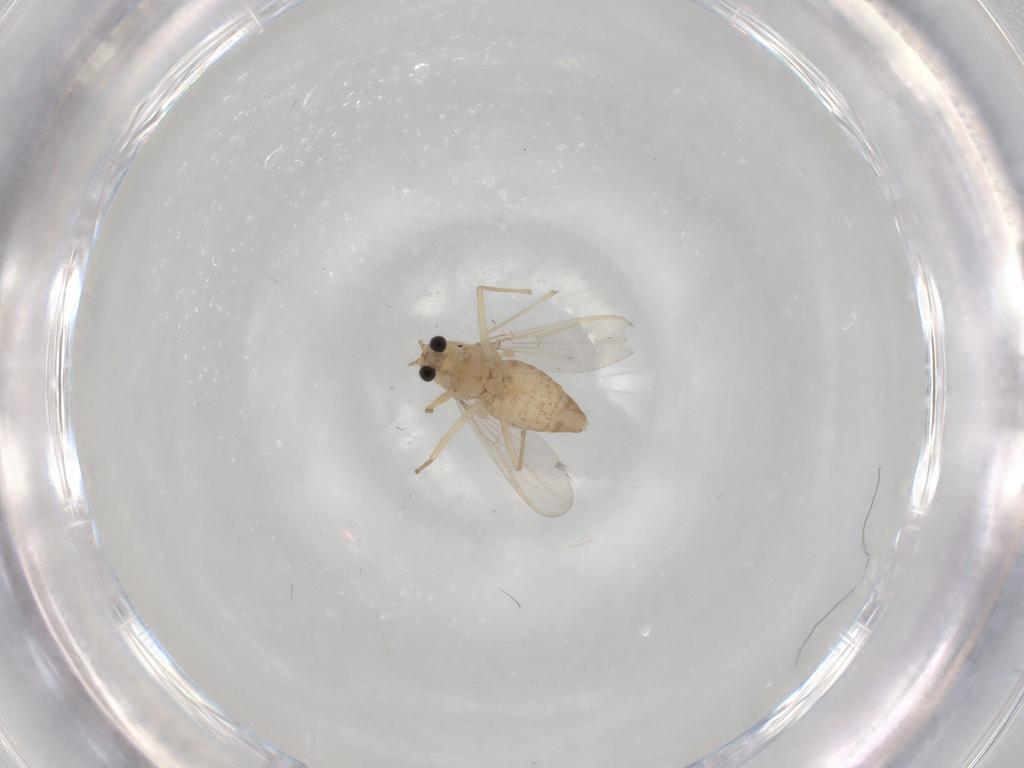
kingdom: Animalia
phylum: Arthropoda
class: Insecta
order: Diptera
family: Chironomidae
